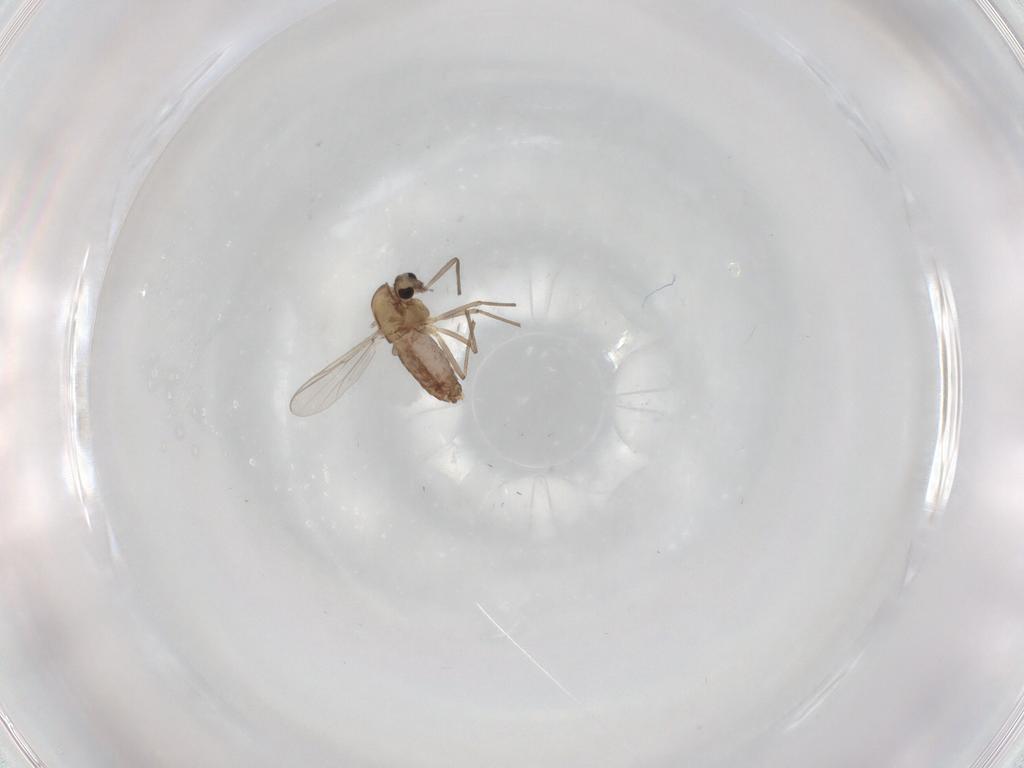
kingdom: Animalia
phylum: Arthropoda
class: Insecta
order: Diptera
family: Chironomidae
